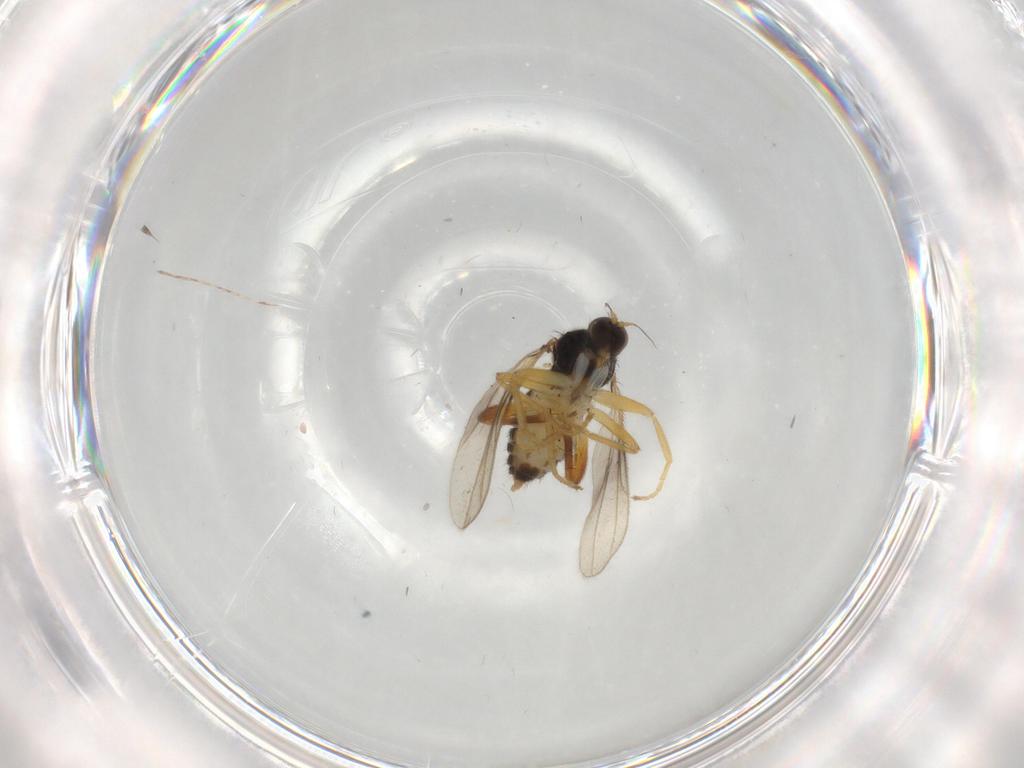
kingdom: Animalia
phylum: Arthropoda
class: Insecta
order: Diptera
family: Hybotidae
